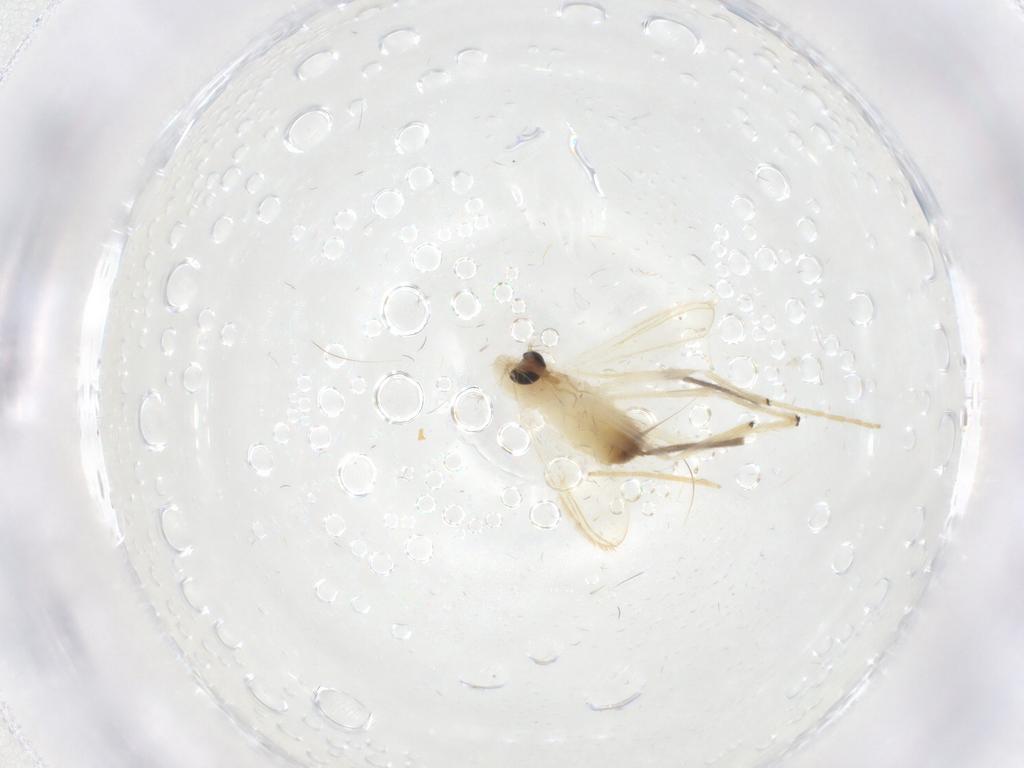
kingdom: Animalia
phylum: Arthropoda
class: Insecta
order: Diptera
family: Chironomidae
